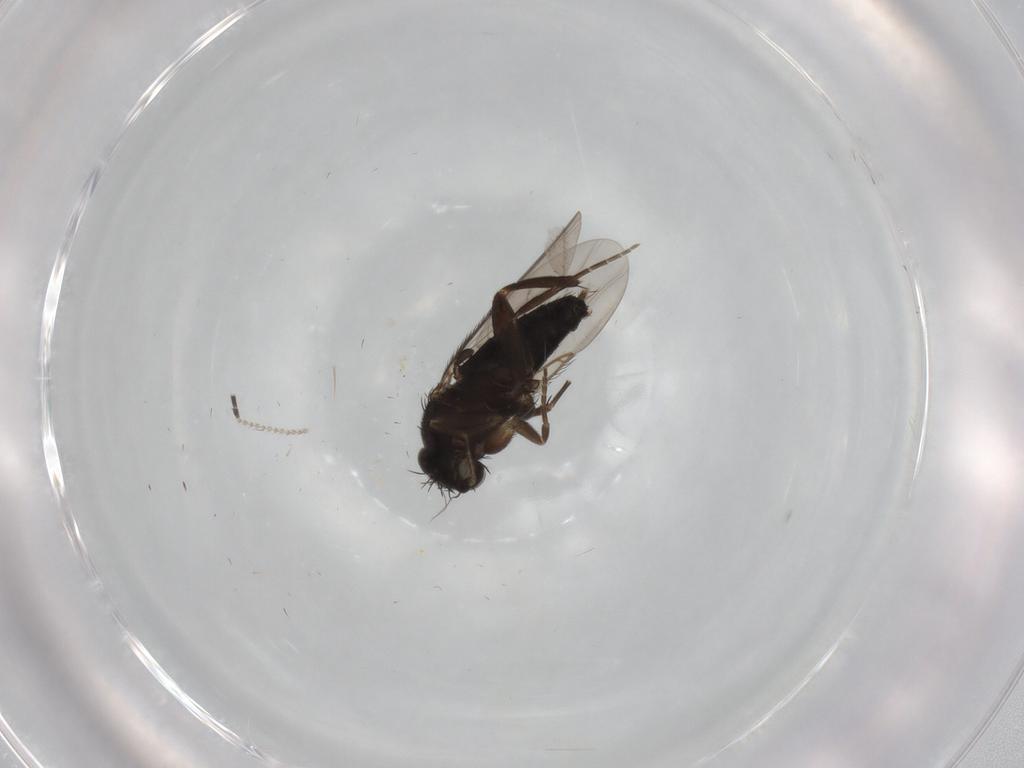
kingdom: Animalia
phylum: Arthropoda
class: Insecta
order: Diptera
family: Phoridae
